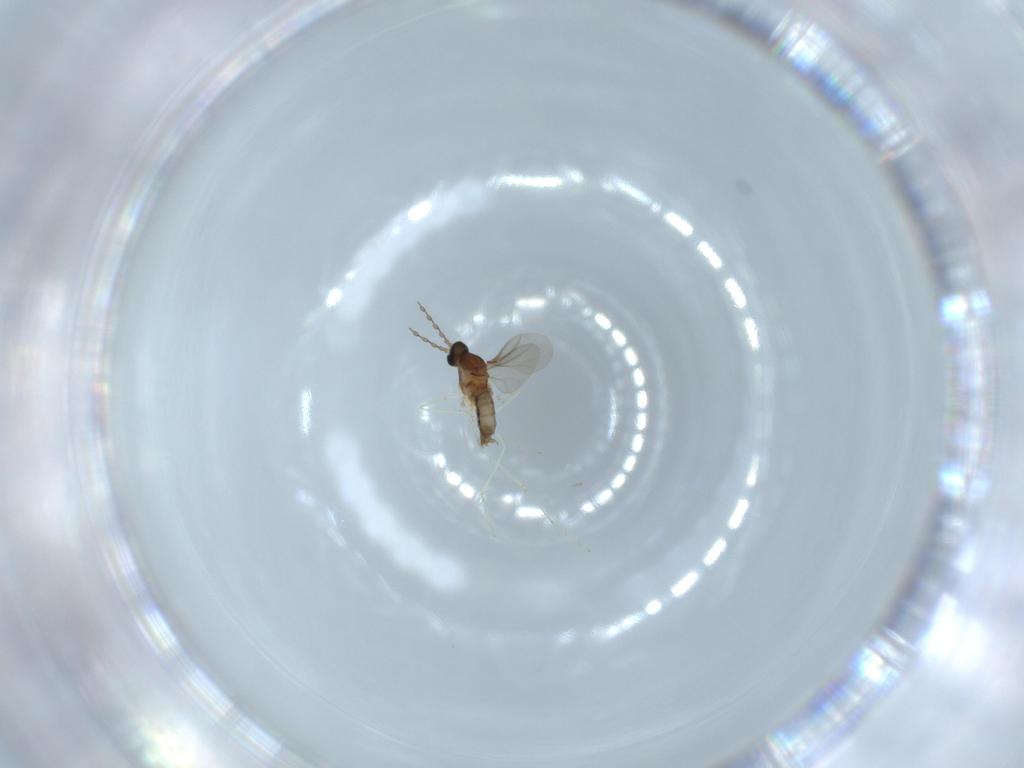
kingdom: Animalia
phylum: Arthropoda
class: Insecta
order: Diptera
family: Cecidomyiidae
